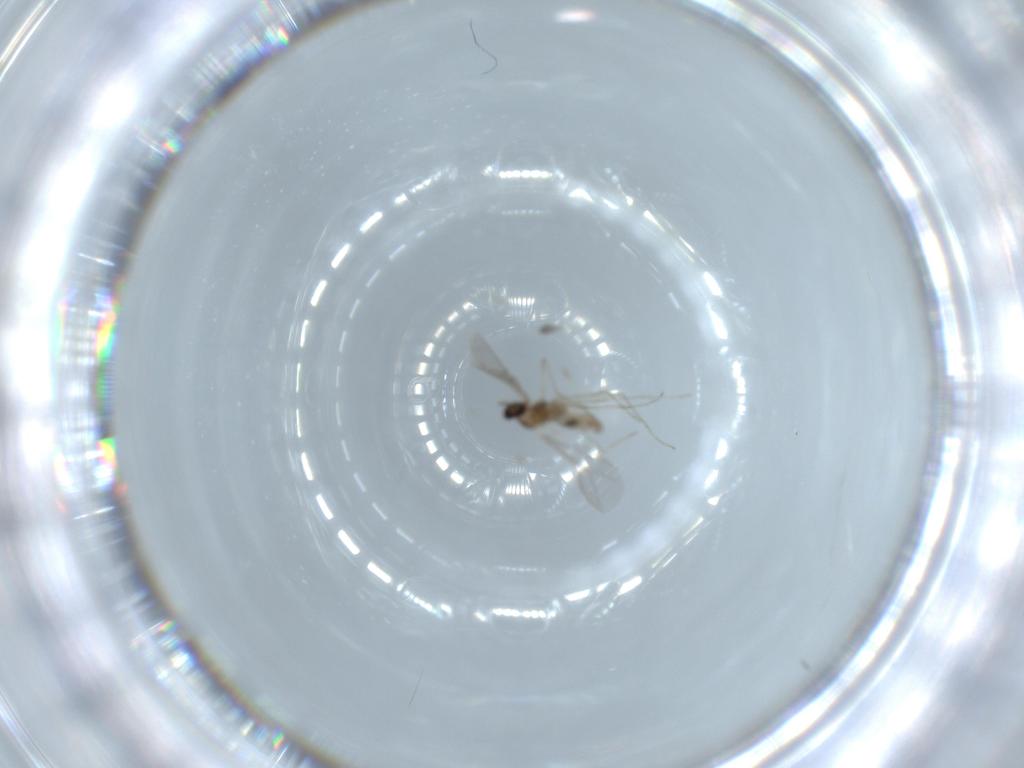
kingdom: Animalia
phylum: Arthropoda
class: Insecta
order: Diptera
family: Cecidomyiidae
